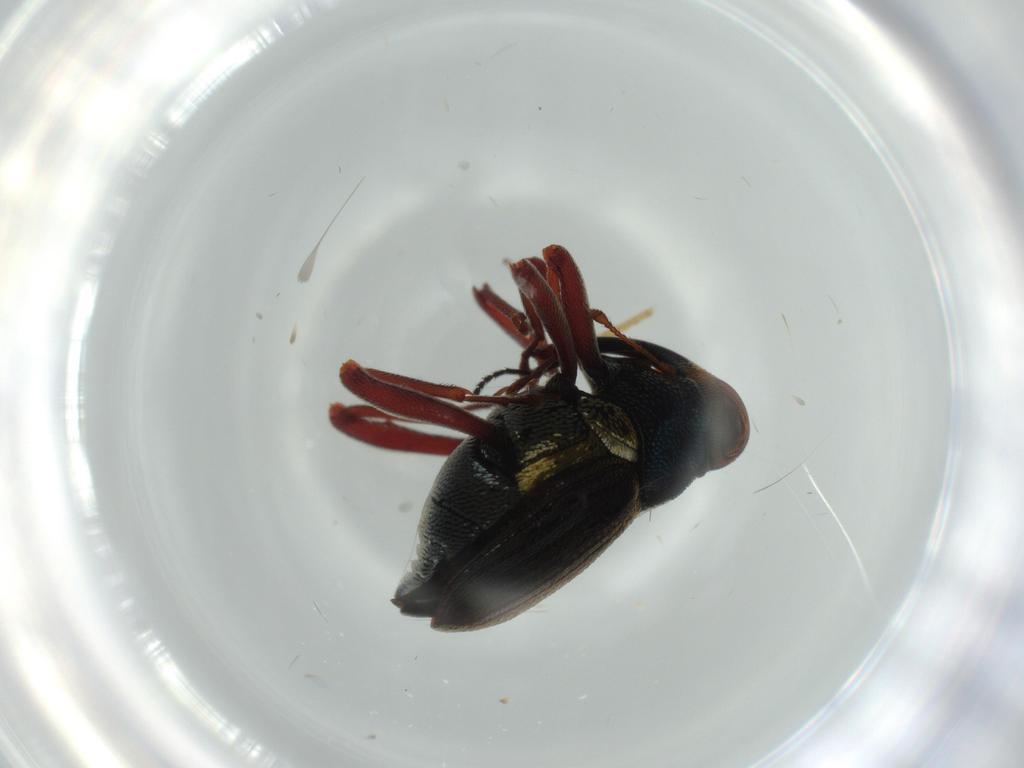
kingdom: Animalia
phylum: Arthropoda
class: Insecta
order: Coleoptera
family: Curculionidae
